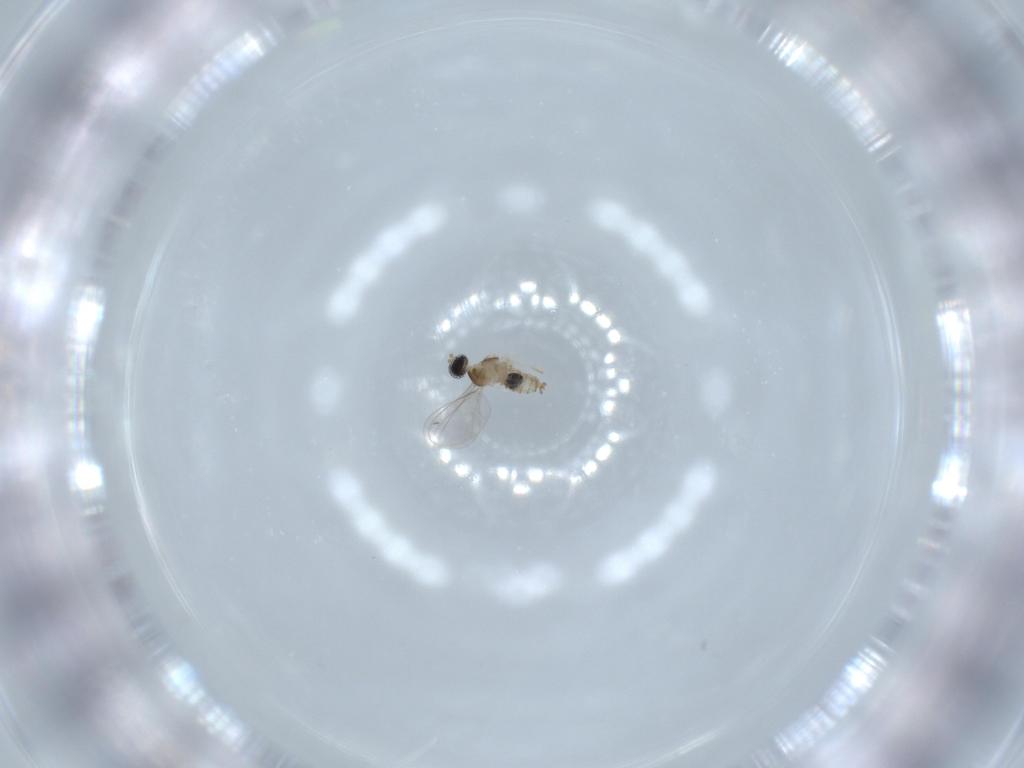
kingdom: Animalia
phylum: Arthropoda
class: Insecta
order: Diptera
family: Cecidomyiidae
